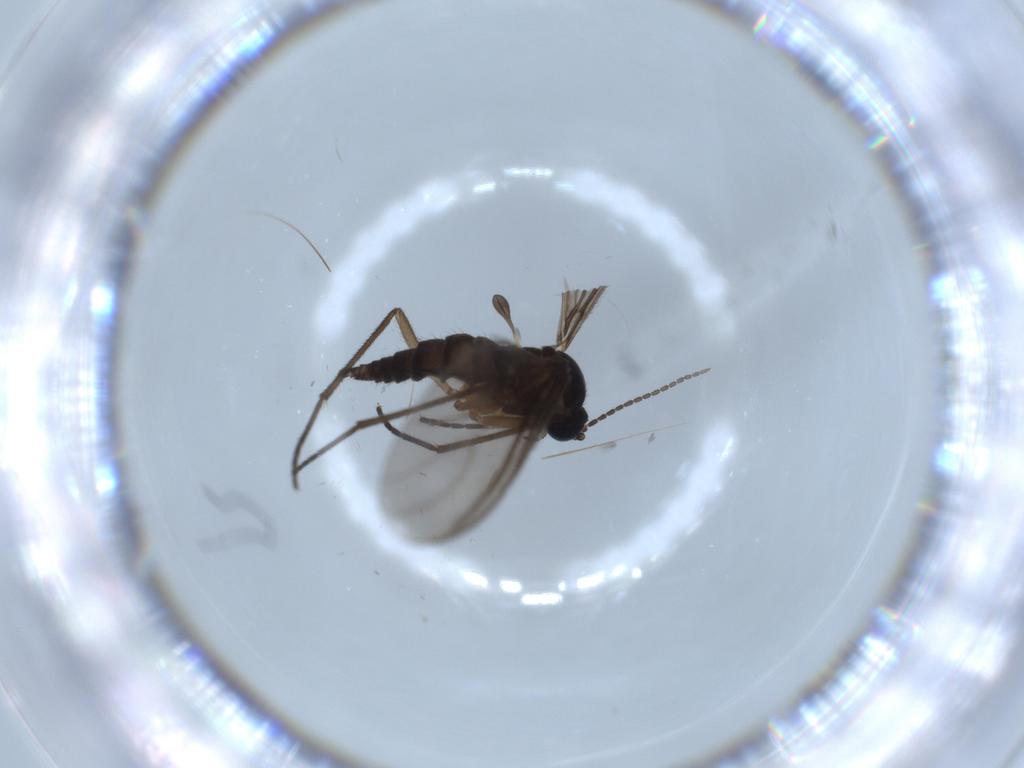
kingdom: Animalia
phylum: Arthropoda
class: Insecta
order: Diptera
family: Sciaridae
